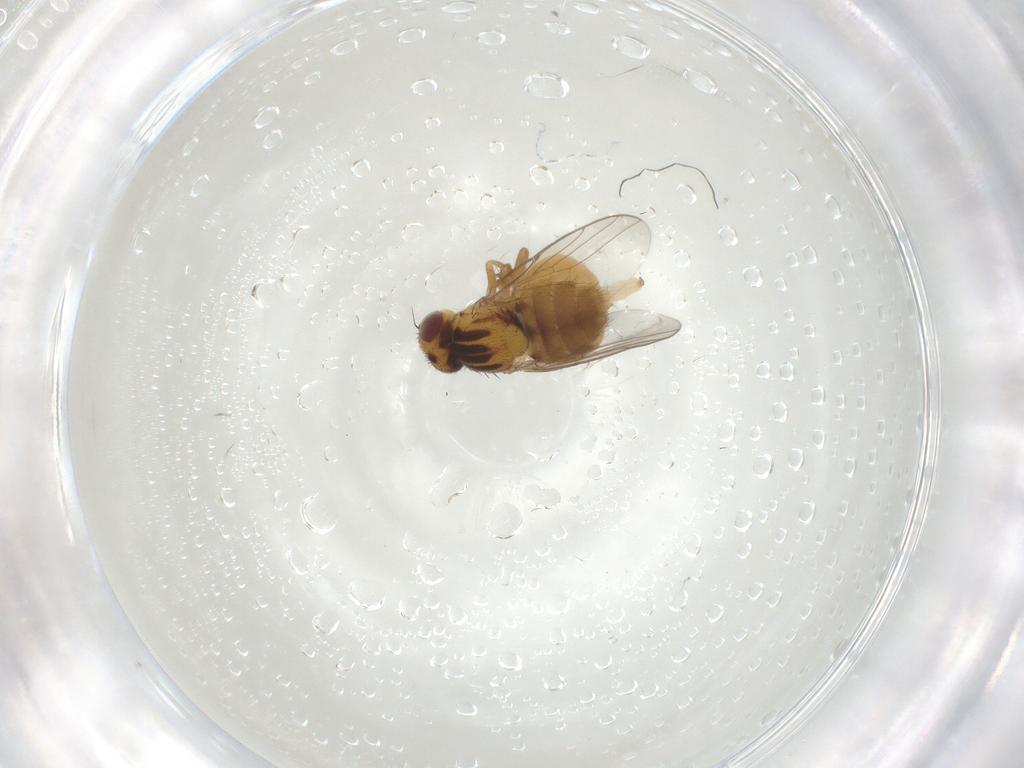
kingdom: Animalia
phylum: Arthropoda
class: Insecta
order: Diptera
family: Chloropidae
